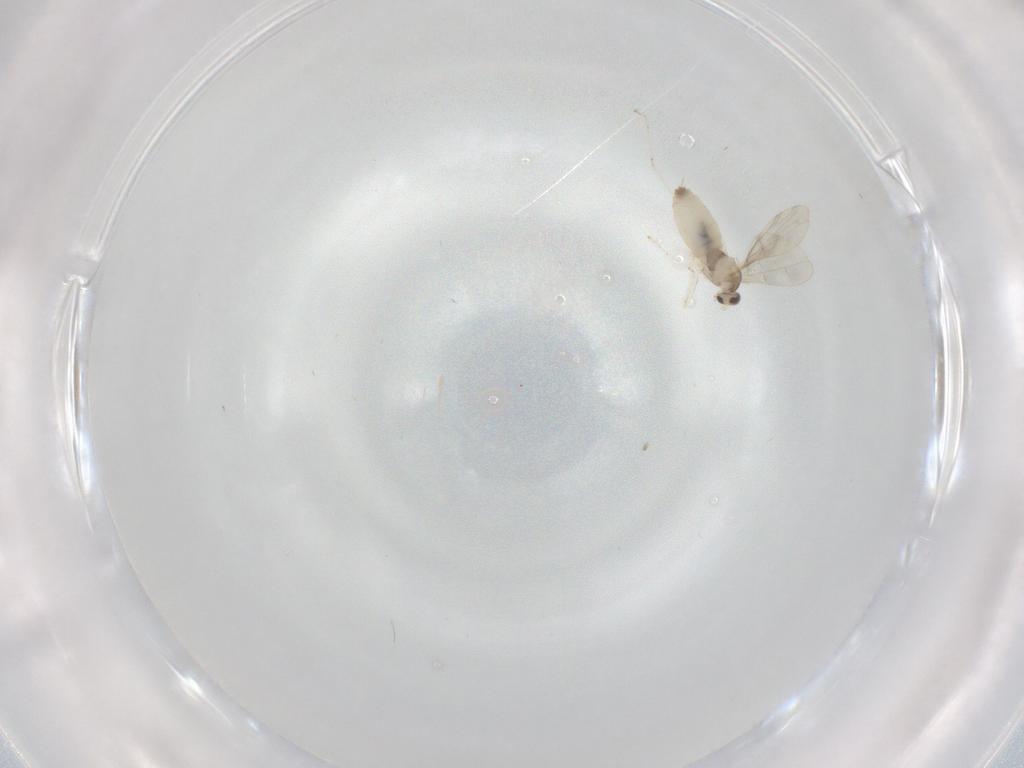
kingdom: Animalia
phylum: Arthropoda
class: Insecta
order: Diptera
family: Cecidomyiidae
